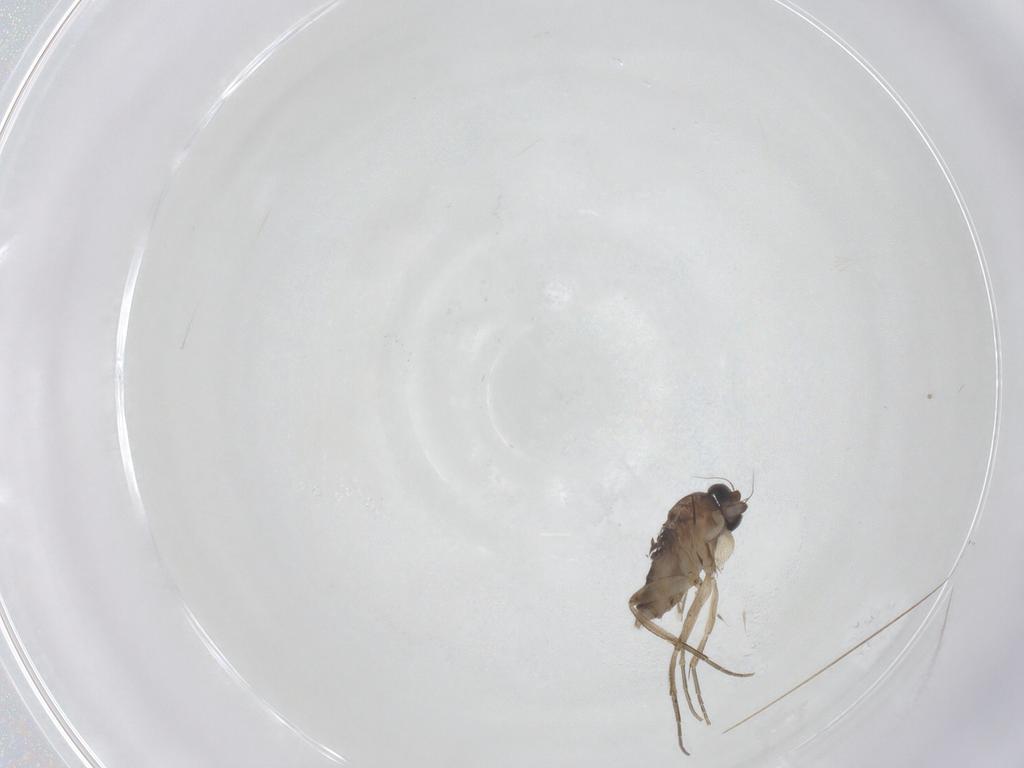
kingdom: Animalia
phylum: Arthropoda
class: Insecta
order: Diptera
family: Phoridae
